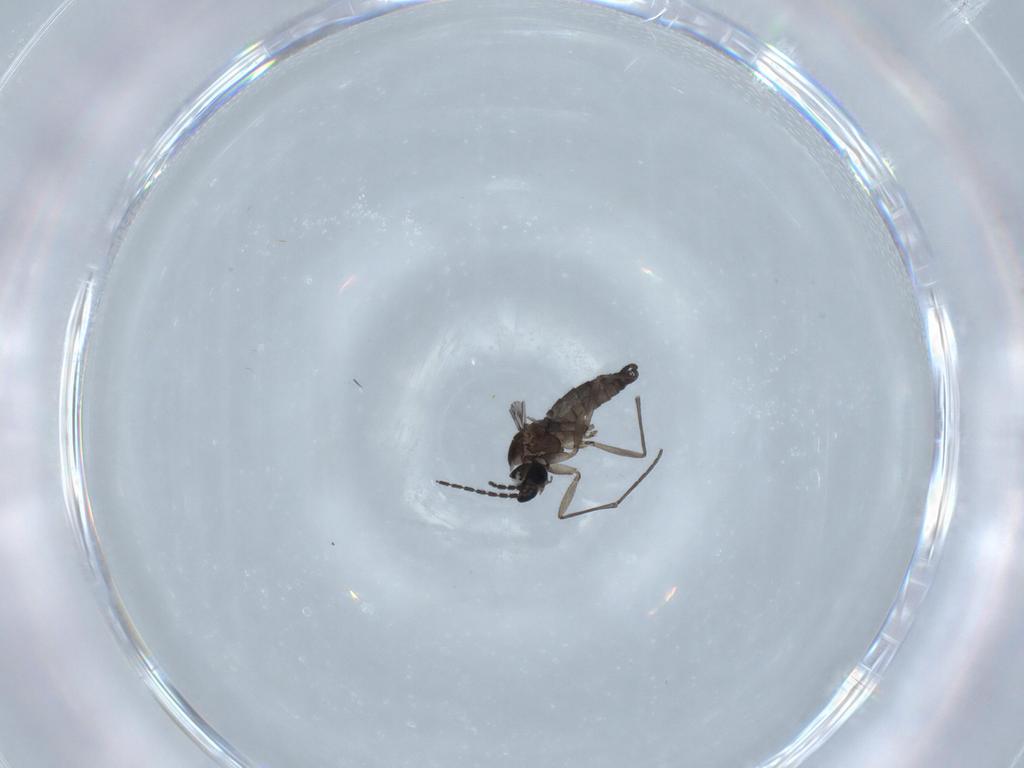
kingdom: Animalia
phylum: Arthropoda
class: Insecta
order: Diptera
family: Sciaridae
